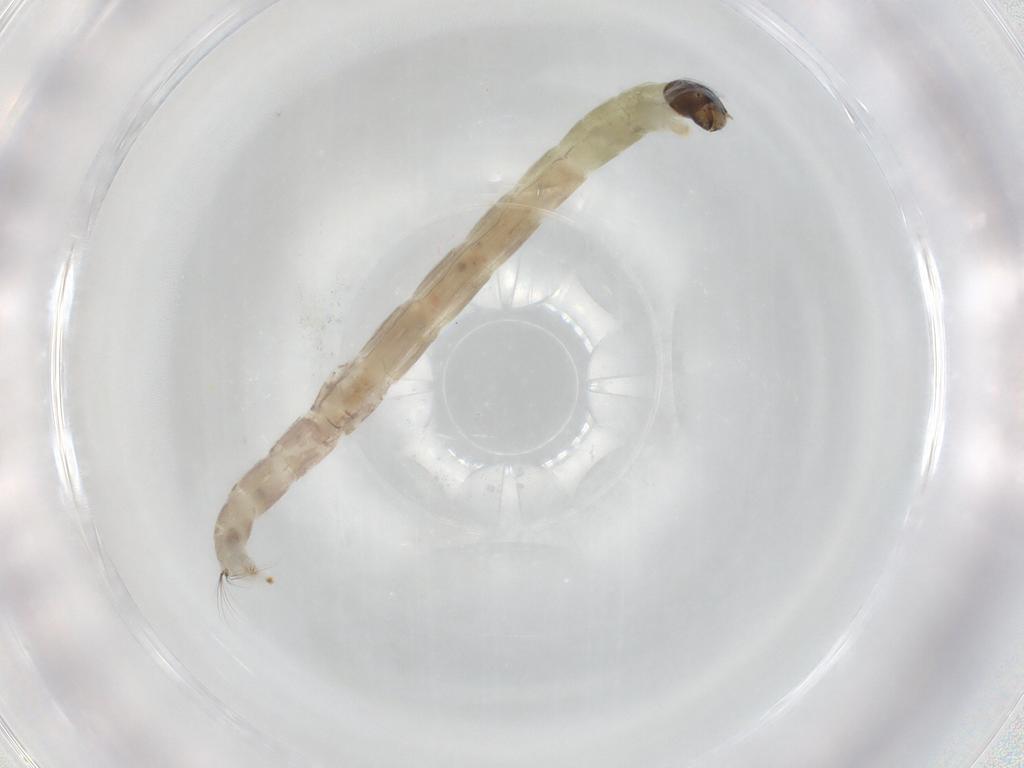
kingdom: Animalia
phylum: Arthropoda
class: Insecta
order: Diptera
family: Chironomidae
